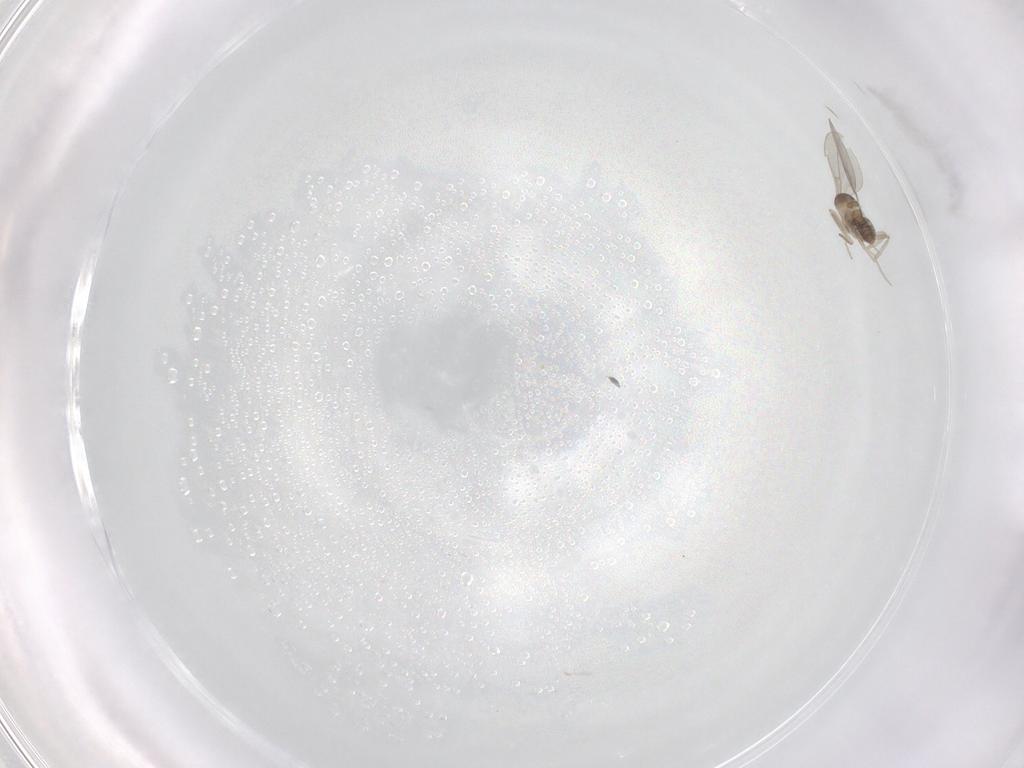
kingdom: Animalia
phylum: Arthropoda
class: Insecta
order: Diptera
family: Cecidomyiidae
